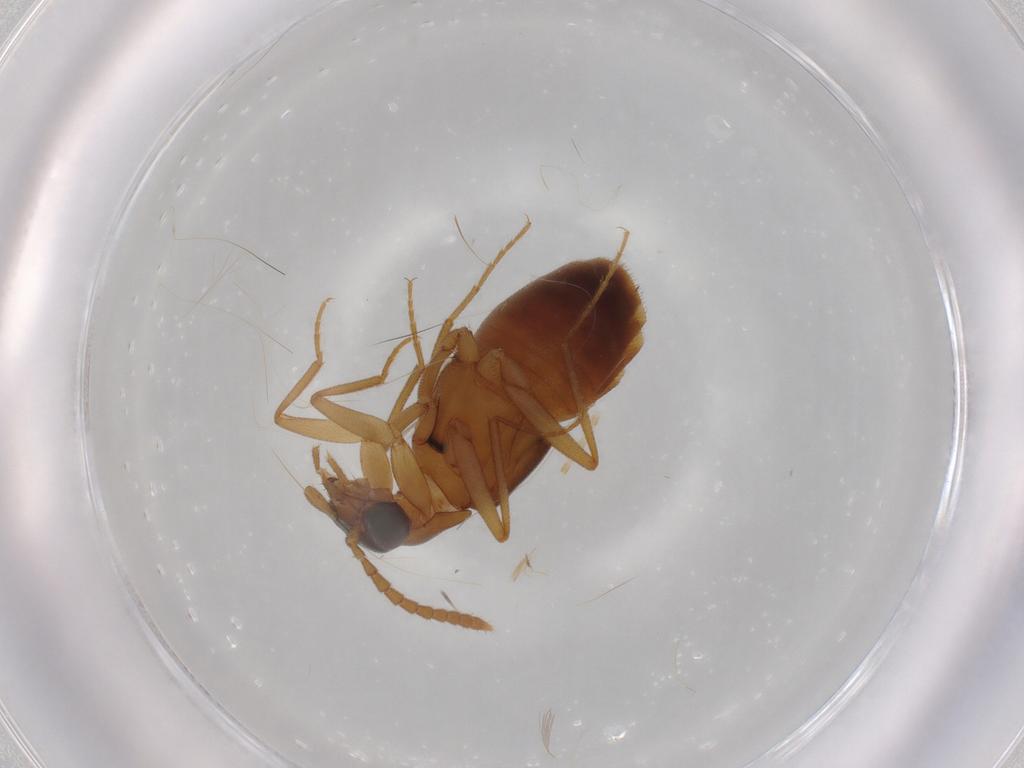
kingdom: Animalia
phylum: Arthropoda
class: Insecta
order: Coleoptera
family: Staphylinidae
